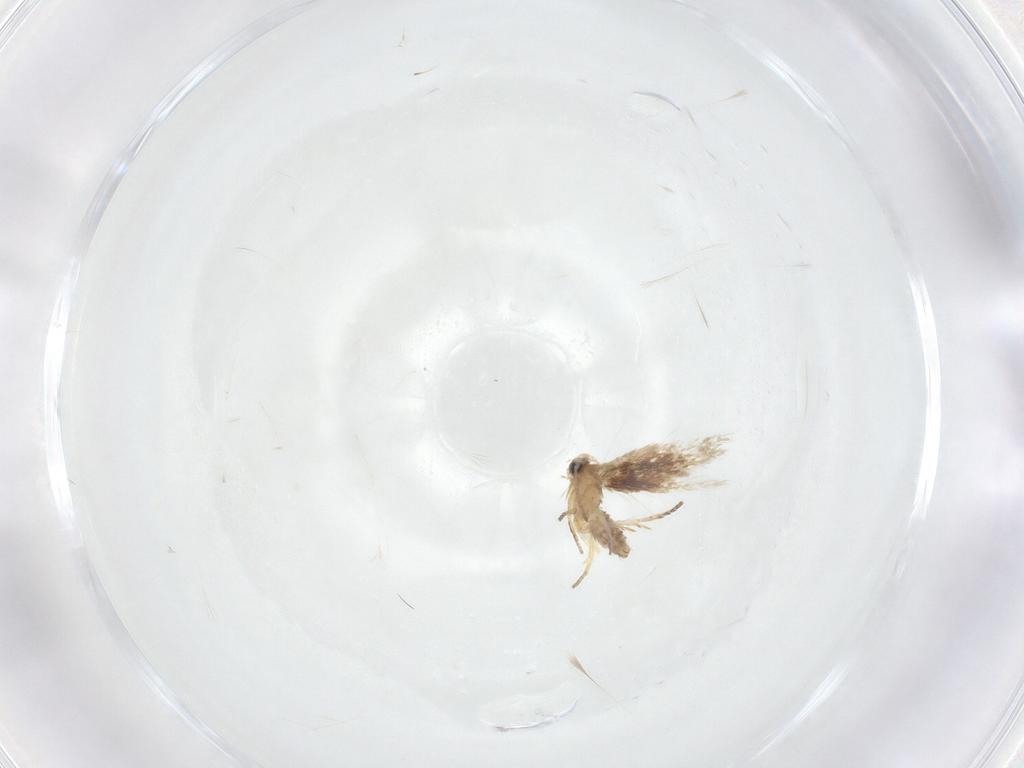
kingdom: Animalia
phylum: Arthropoda
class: Insecta
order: Lepidoptera
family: Nepticulidae
